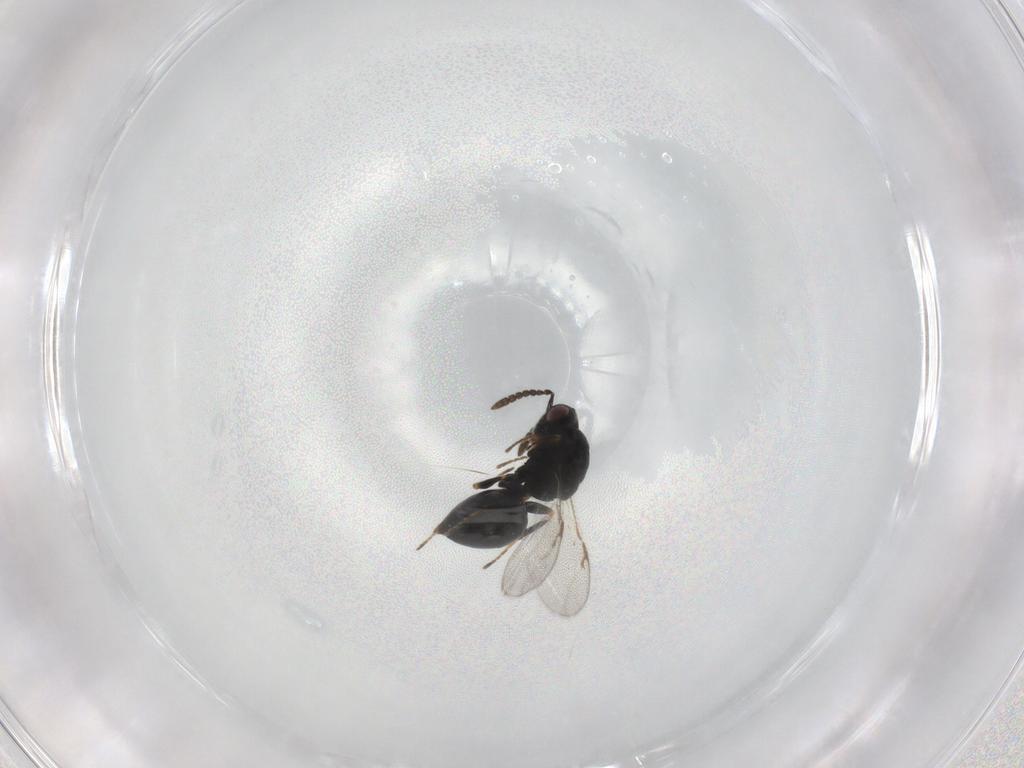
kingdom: Animalia
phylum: Arthropoda
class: Insecta
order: Hymenoptera
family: Eurytomidae
